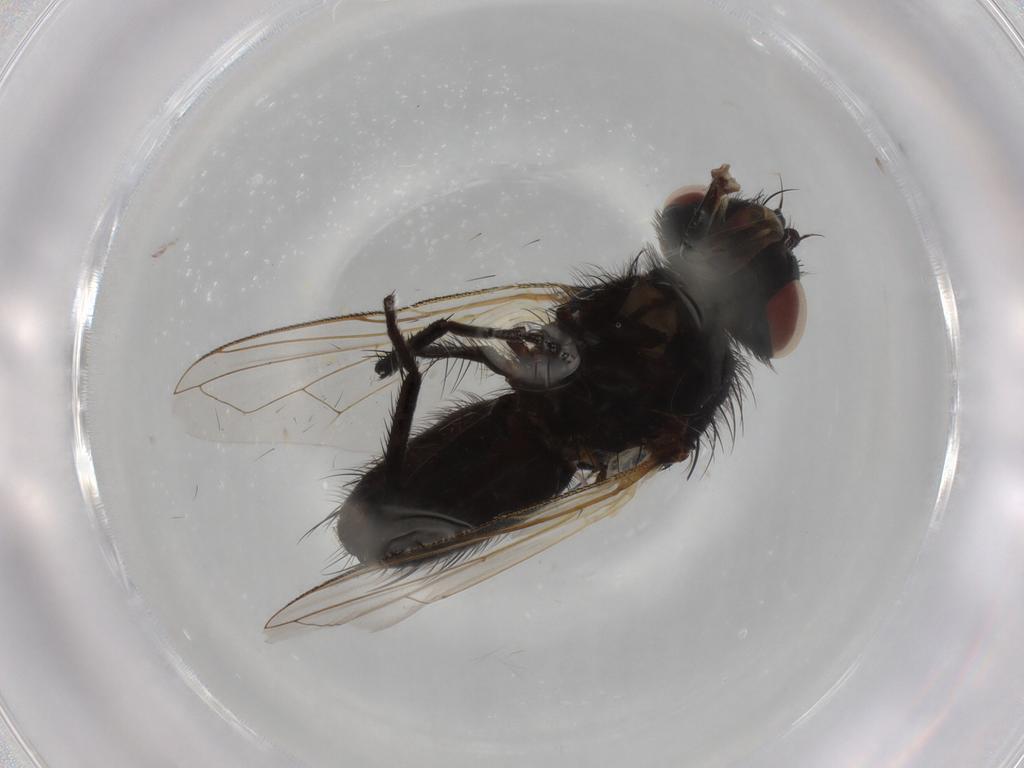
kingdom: Animalia
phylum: Arthropoda
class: Insecta
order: Diptera
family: Tachinidae
